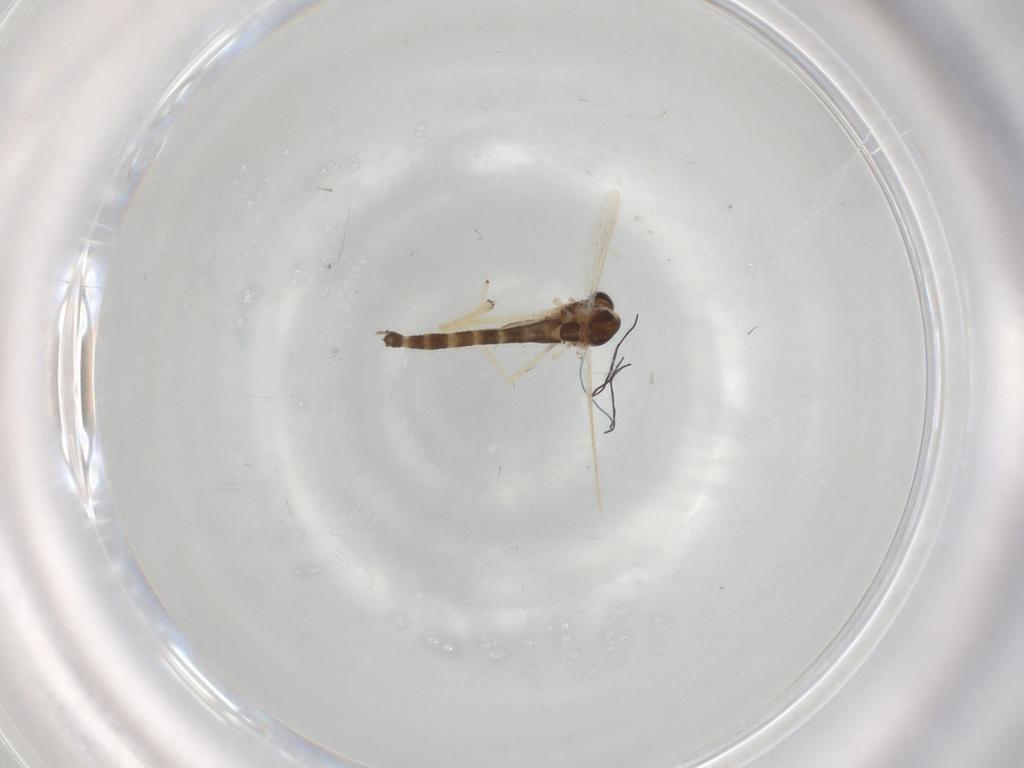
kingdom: Animalia
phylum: Arthropoda
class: Insecta
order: Diptera
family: Chironomidae
